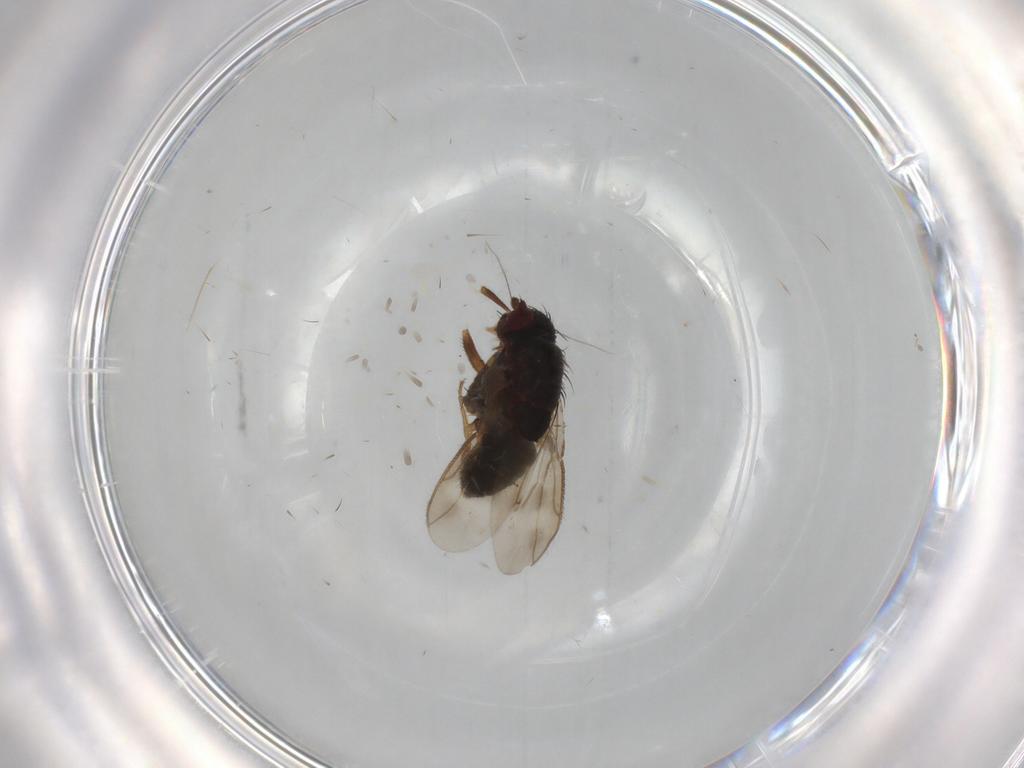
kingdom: Animalia
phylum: Arthropoda
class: Insecta
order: Diptera
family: Sphaeroceridae
